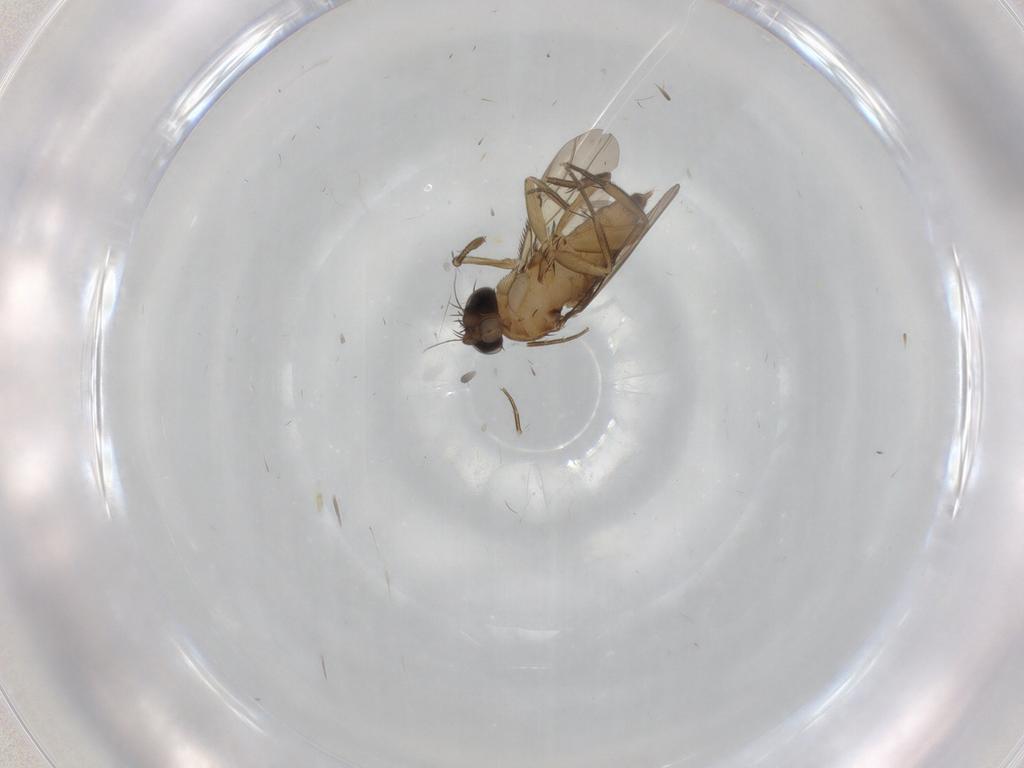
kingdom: Animalia
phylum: Arthropoda
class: Insecta
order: Diptera
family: Phoridae
